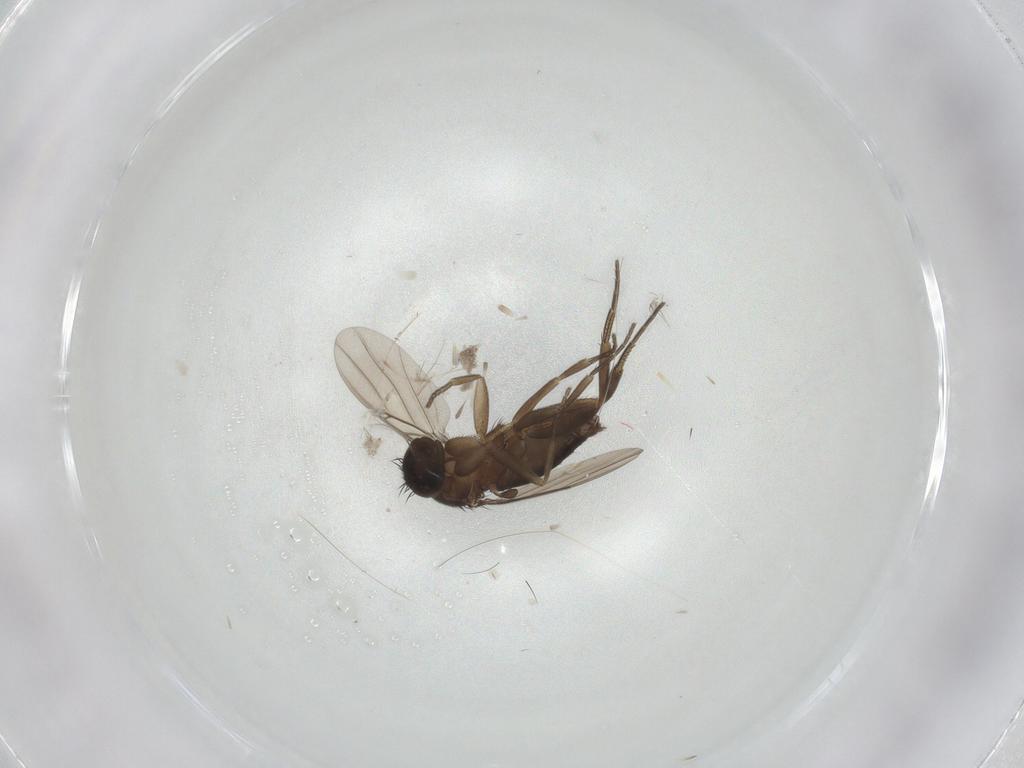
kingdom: Animalia
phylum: Arthropoda
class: Insecta
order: Diptera
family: Phoridae
